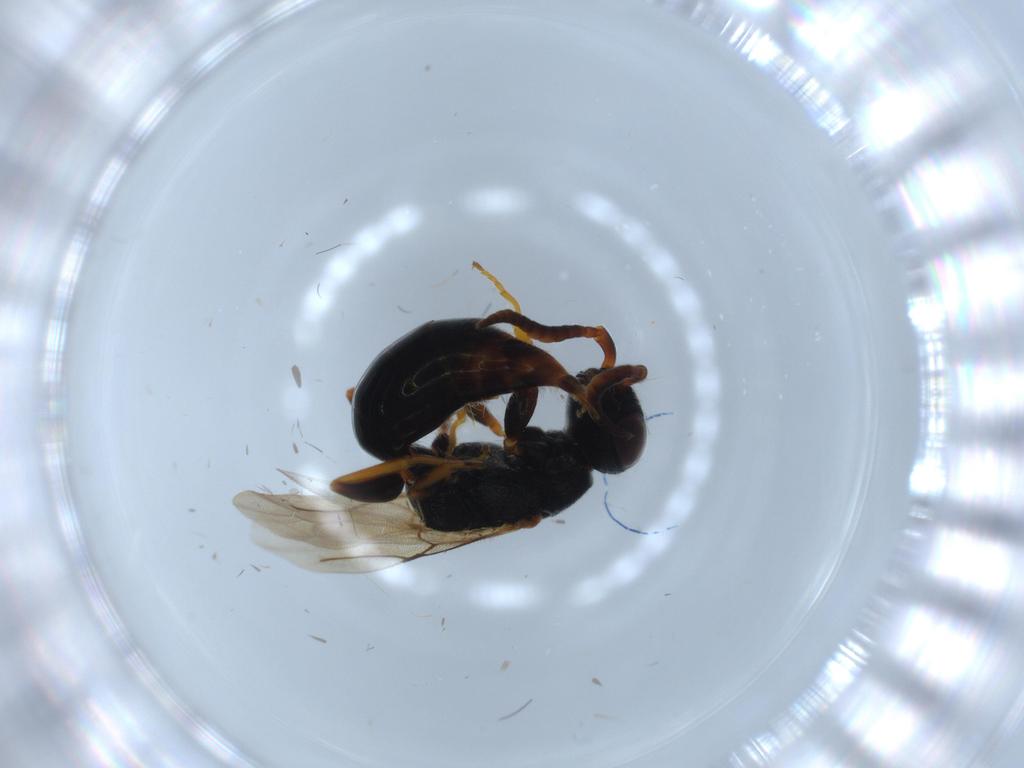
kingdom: Animalia
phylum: Arthropoda
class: Insecta
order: Hymenoptera
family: Bethylidae
